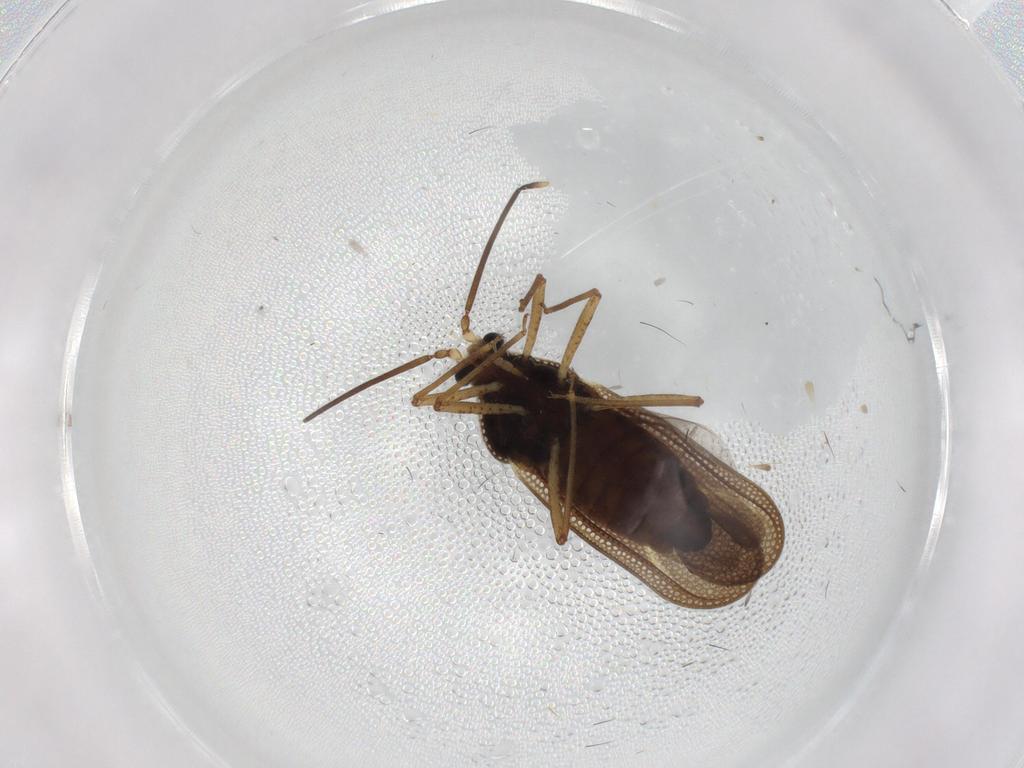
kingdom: Animalia
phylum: Arthropoda
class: Insecta
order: Hemiptera
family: Tingidae
